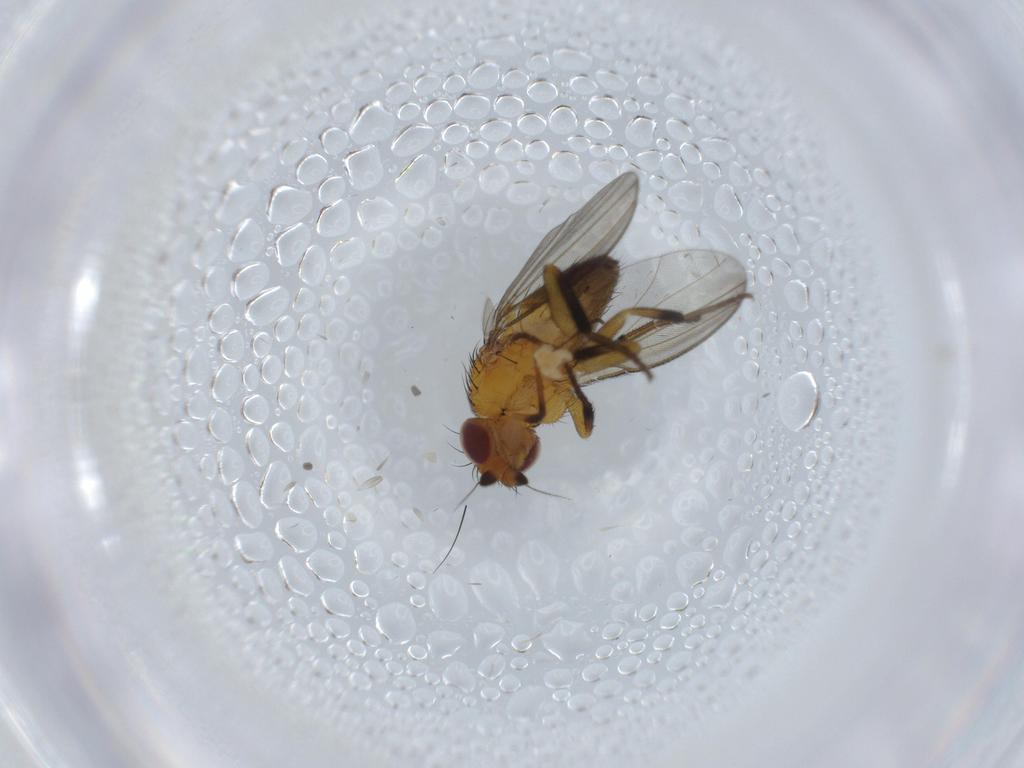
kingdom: Animalia
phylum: Arthropoda
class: Insecta
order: Diptera
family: Milichiidae
